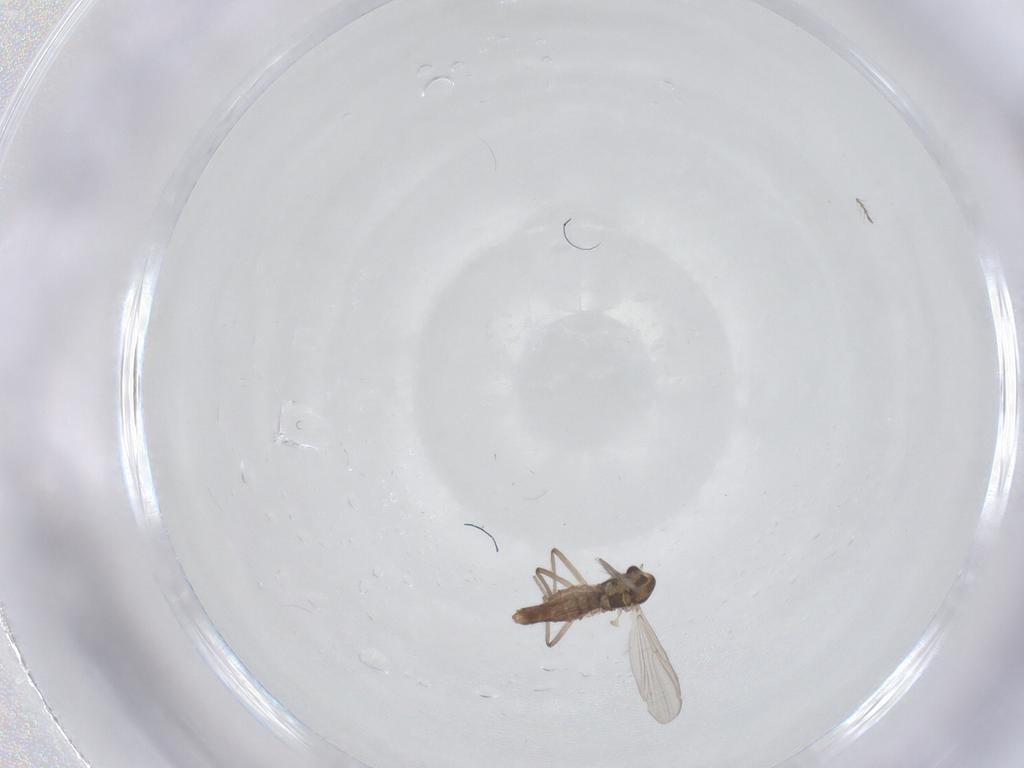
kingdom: Animalia
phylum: Arthropoda
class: Insecta
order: Diptera
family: Chironomidae
